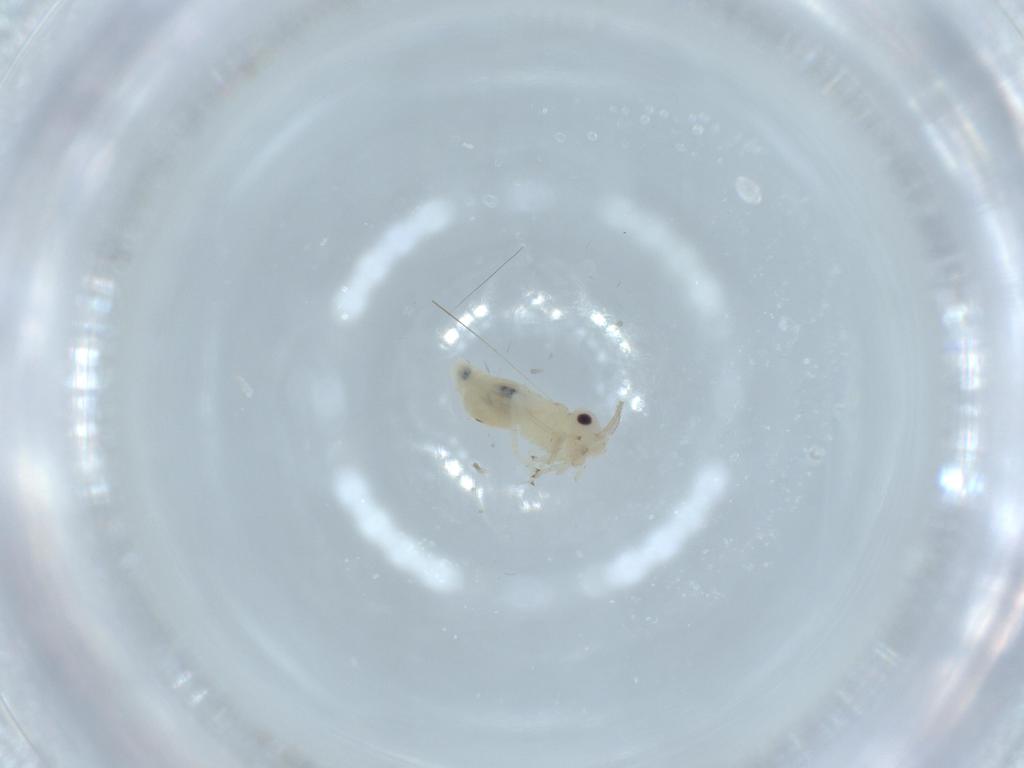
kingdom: Animalia
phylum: Arthropoda
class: Insecta
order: Psocodea
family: Caeciliusidae
